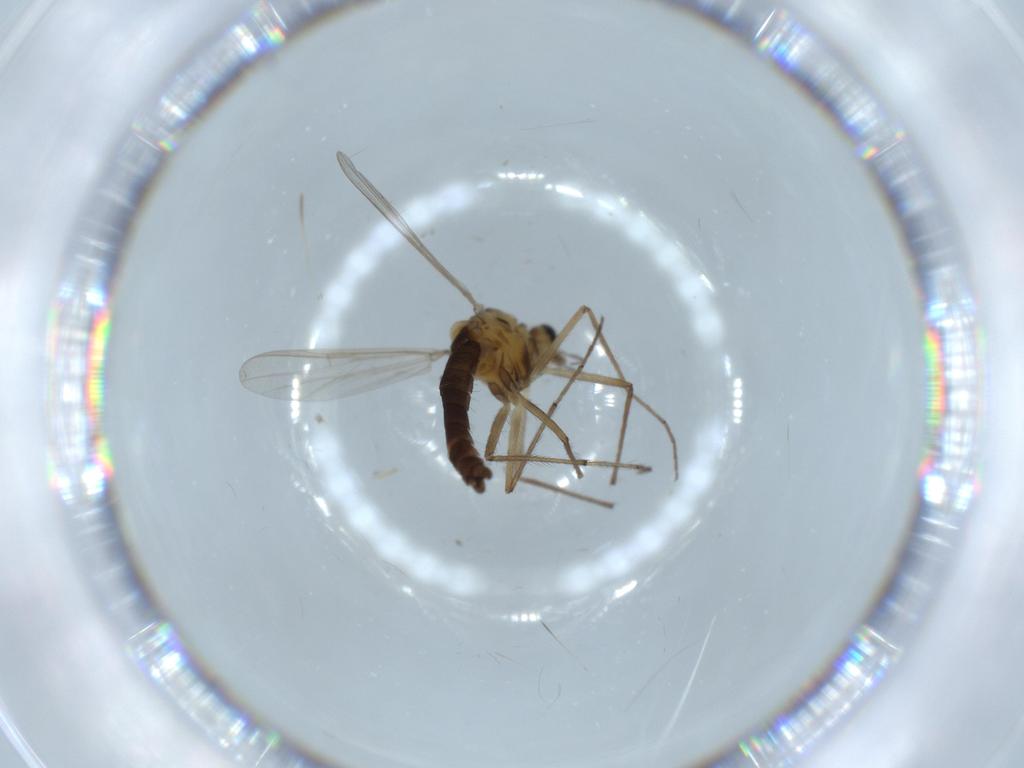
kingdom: Animalia
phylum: Arthropoda
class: Insecta
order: Diptera
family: Chironomidae
